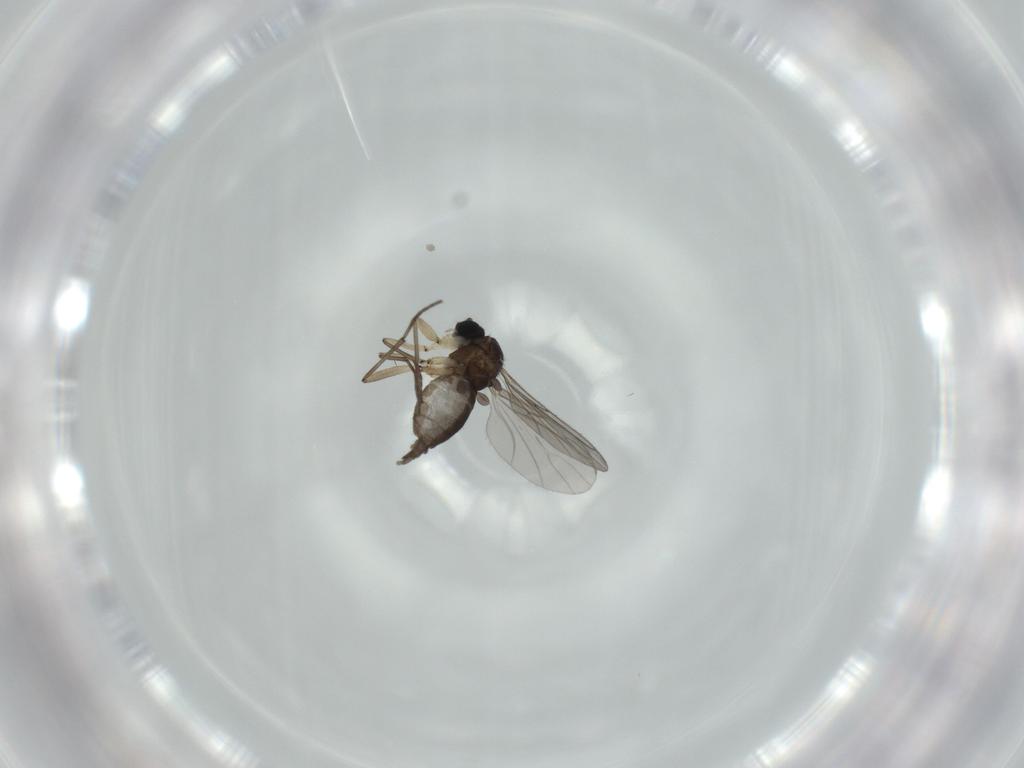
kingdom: Animalia
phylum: Arthropoda
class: Insecta
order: Diptera
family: Sciaridae
